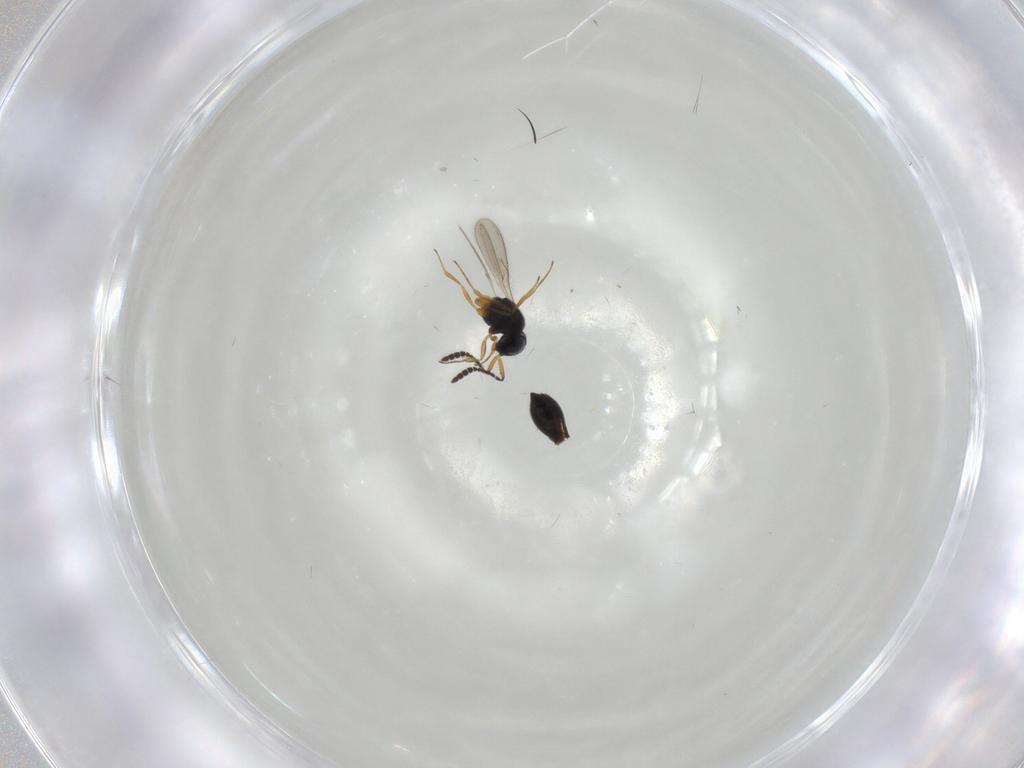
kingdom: Animalia
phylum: Arthropoda
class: Insecta
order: Hymenoptera
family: Scelionidae
